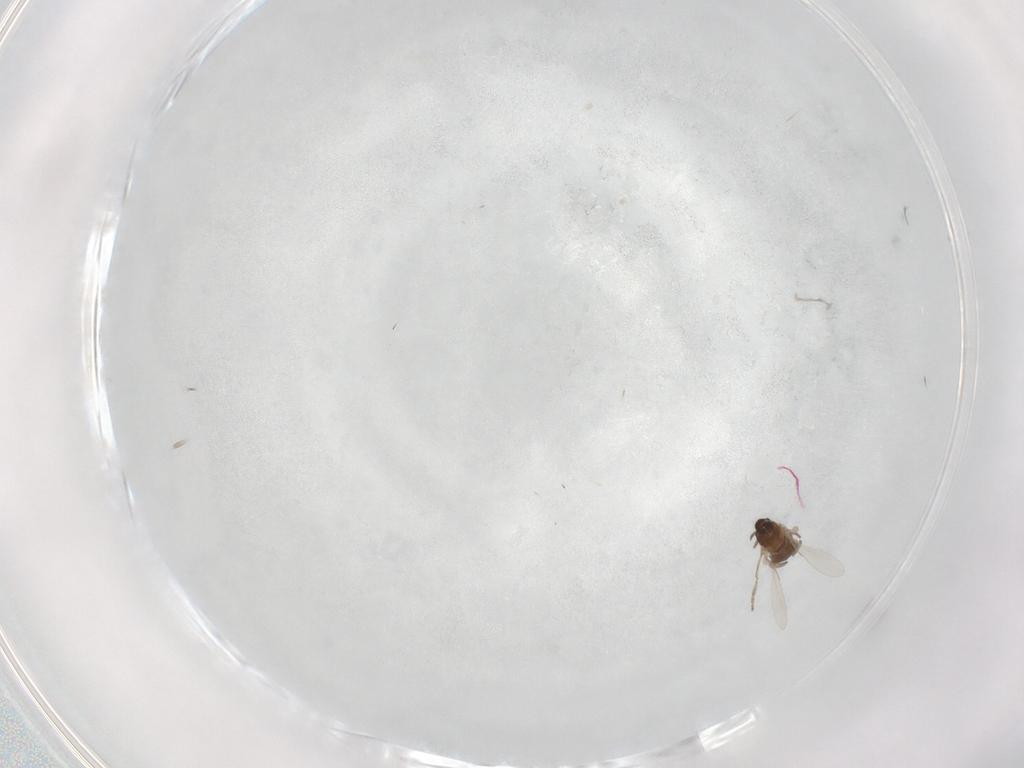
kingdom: Animalia
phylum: Arthropoda
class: Insecta
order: Diptera
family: Cecidomyiidae
